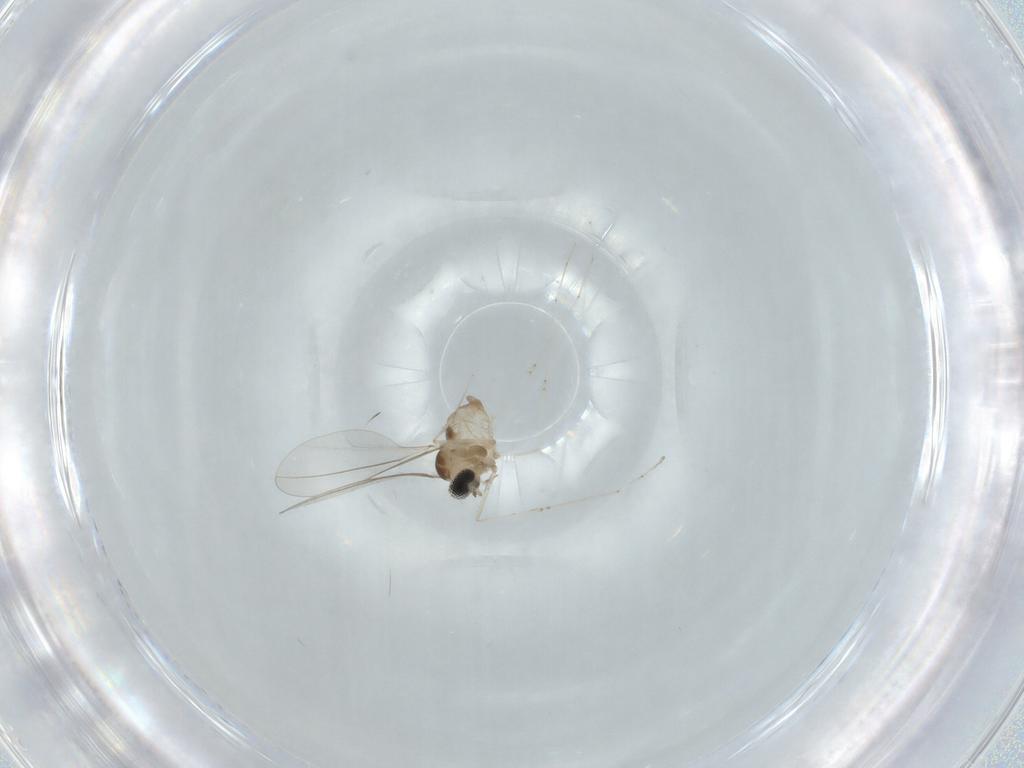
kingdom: Animalia
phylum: Arthropoda
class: Insecta
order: Diptera
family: Cecidomyiidae
